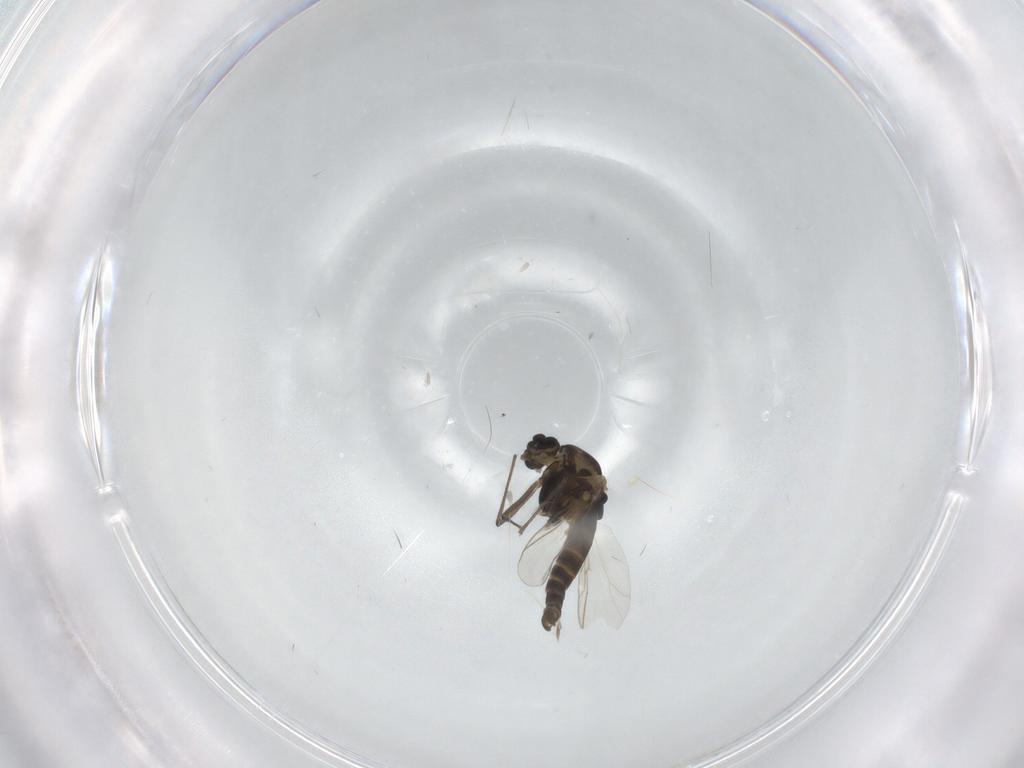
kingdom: Animalia
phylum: Arthropoda
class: Insecta
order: Diptera
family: Chironomidae
